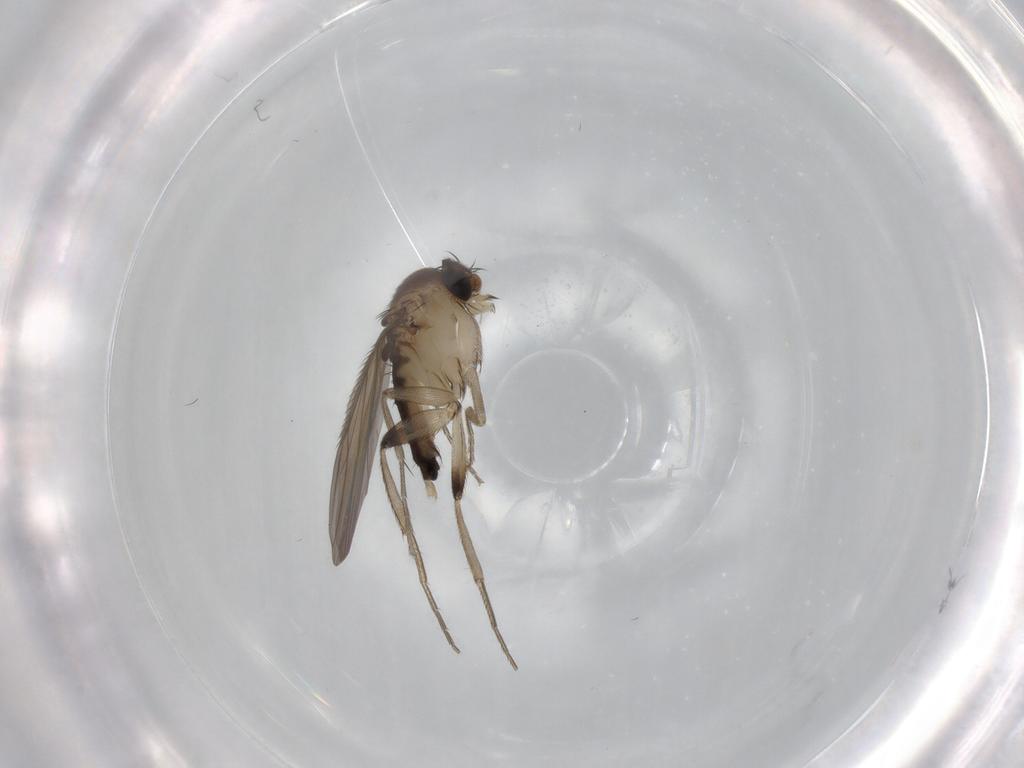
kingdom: Animalia
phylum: Arthropoda
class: Insecta
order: Diptera
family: Phoridae
